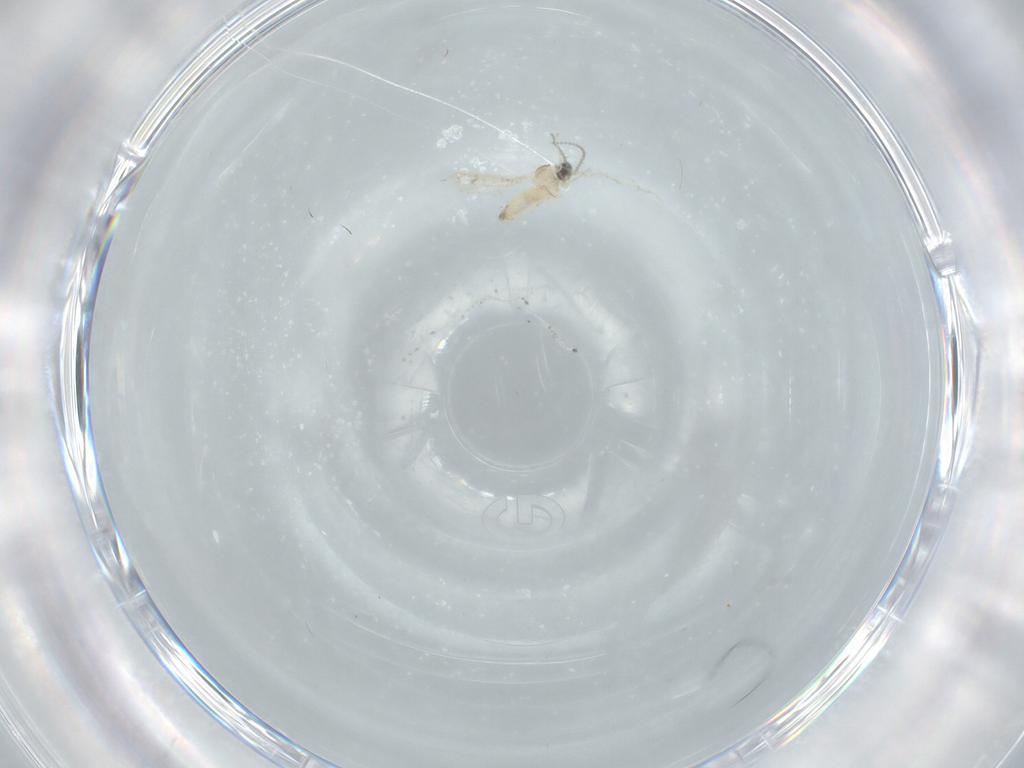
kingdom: Animalia
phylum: Arthropoda
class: Insecta
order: Diptera
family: Cecidomyiidae
